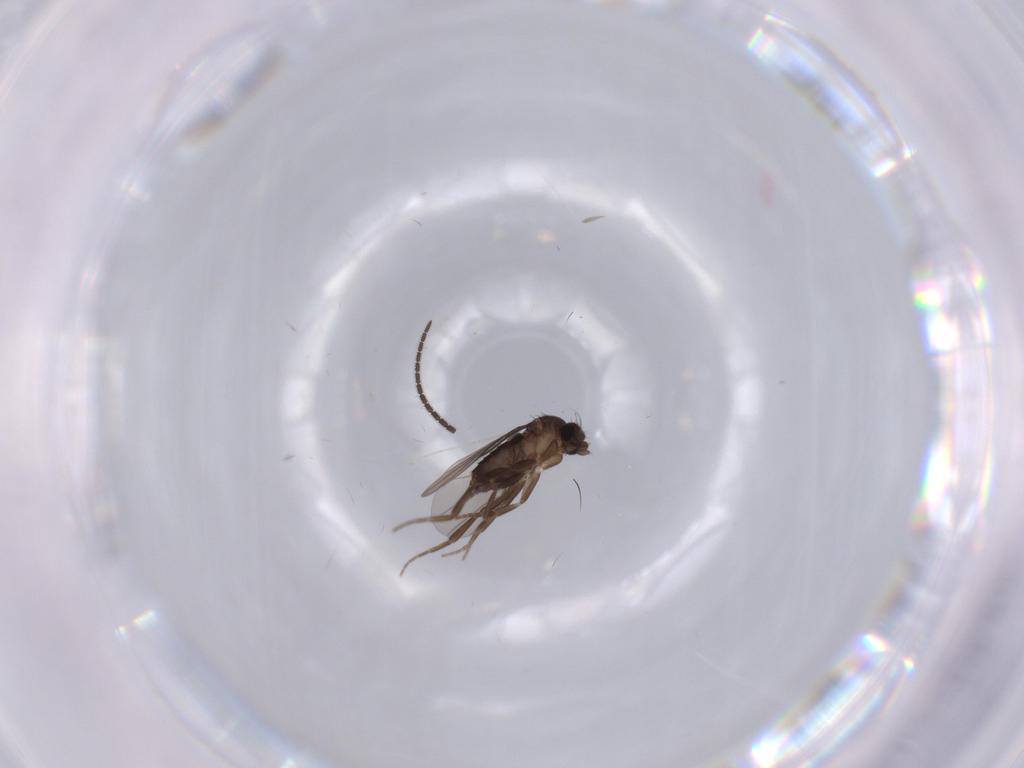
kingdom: Animalia
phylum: Arthropoda
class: Insecta
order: Diptera
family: Phoridae
